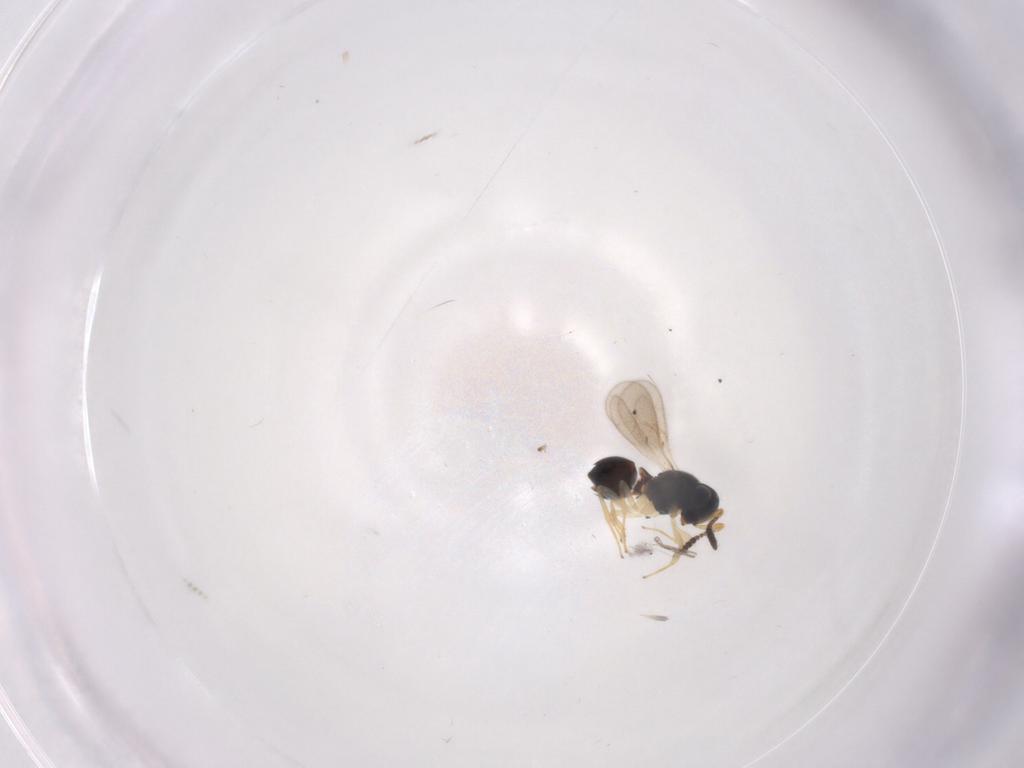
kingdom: Animalia
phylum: Arthropoda
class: Insecta
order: Hymenoptera
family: Scelionidae
